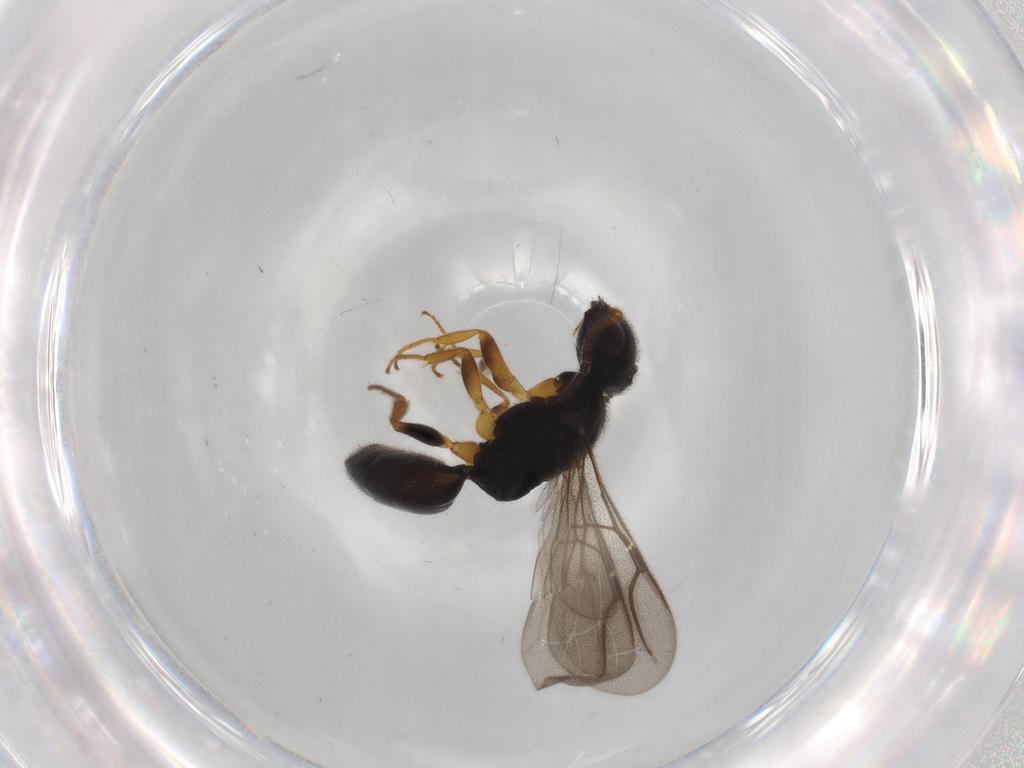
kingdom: Animalia
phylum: Arthropoda
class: Insecta
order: Hymenoptera
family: Bethylidae
